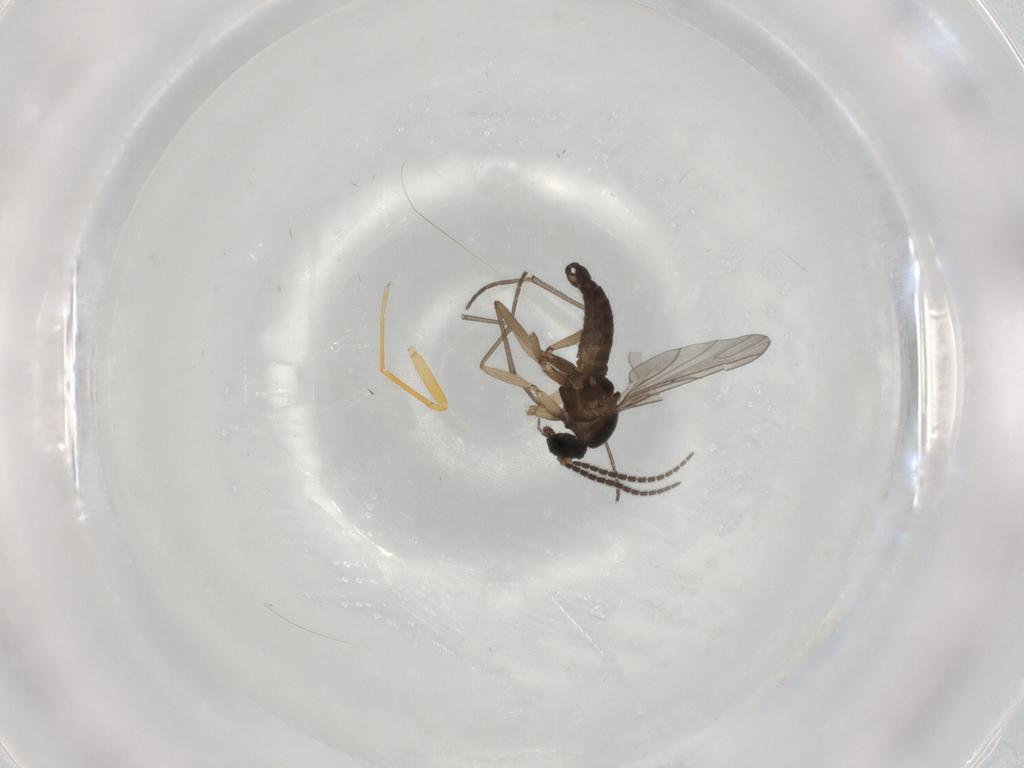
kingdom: Animalia
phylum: Arthropoda
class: Insecta
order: Diptera
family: Sciaridae
